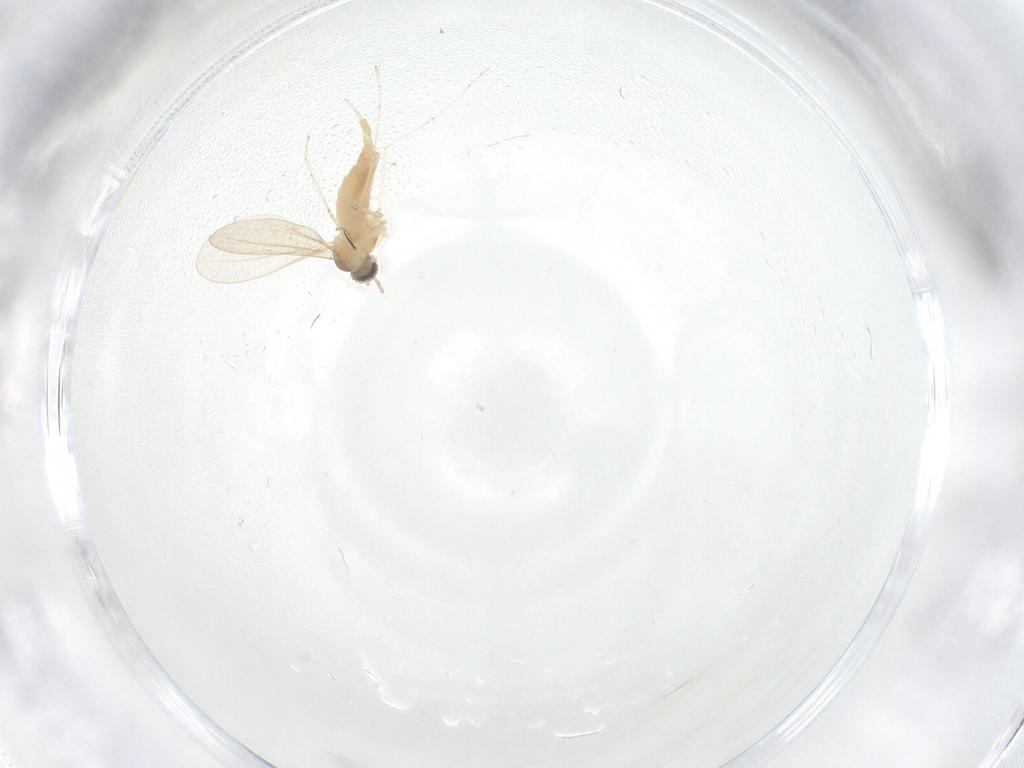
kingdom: Animalia
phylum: Arthropoda
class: Insecta
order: Diptera
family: Cecidomyiidae
